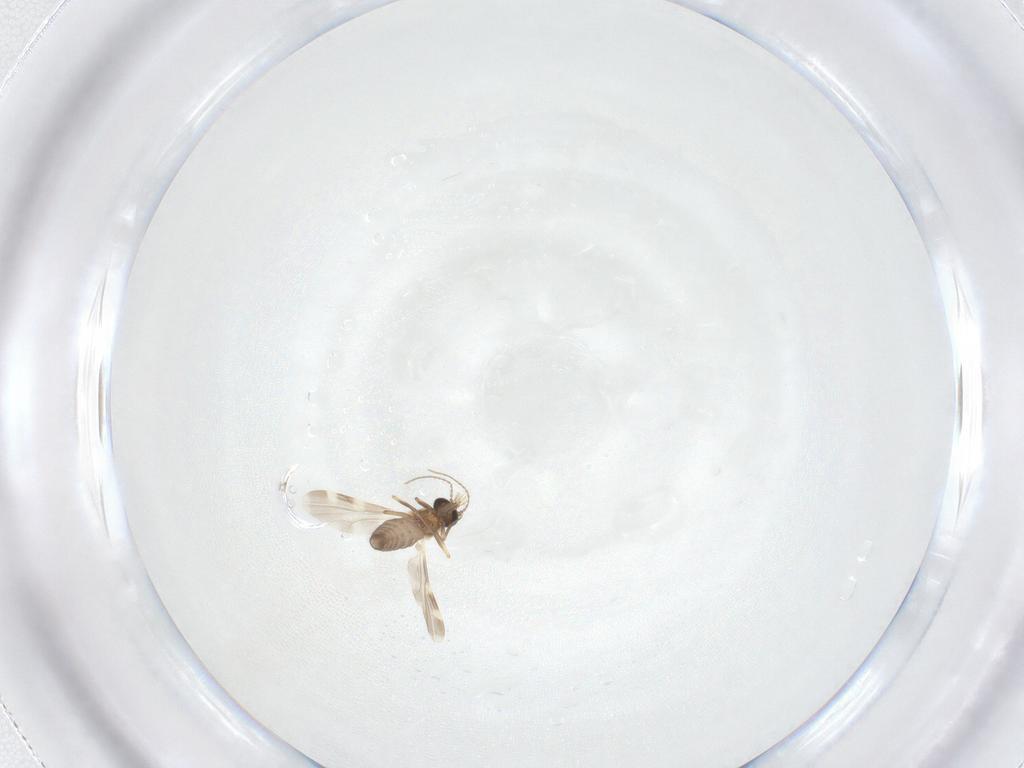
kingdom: Animalia
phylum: Arthropoda
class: Insecta
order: Diptera
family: Ceratopogonidae
